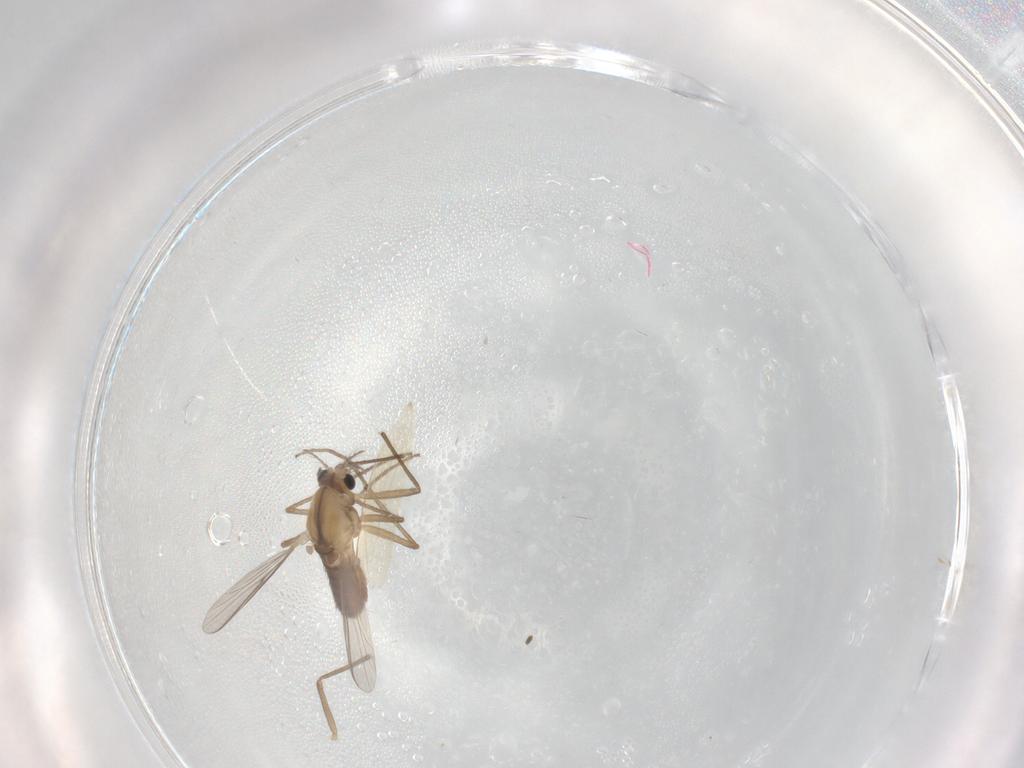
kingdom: Animalia
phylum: Arthropoda
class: Insecta
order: Diptera
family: Chironomidae
